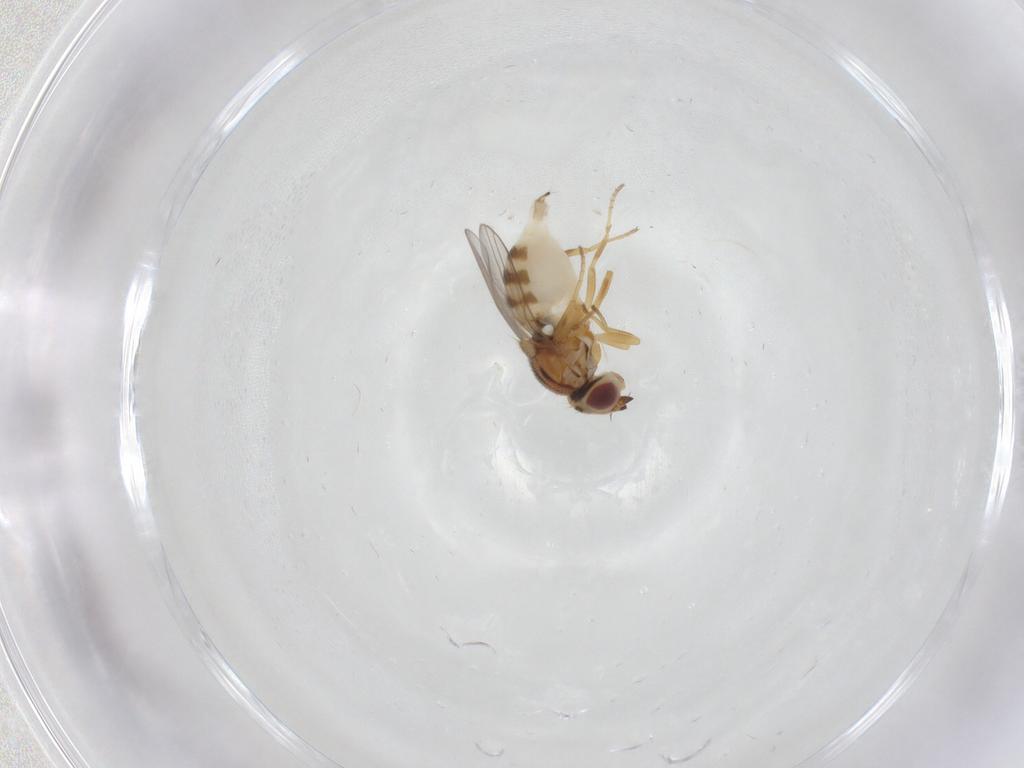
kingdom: Animalia
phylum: Arthropoda
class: Insecta
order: Diptera
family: Chloropidae
